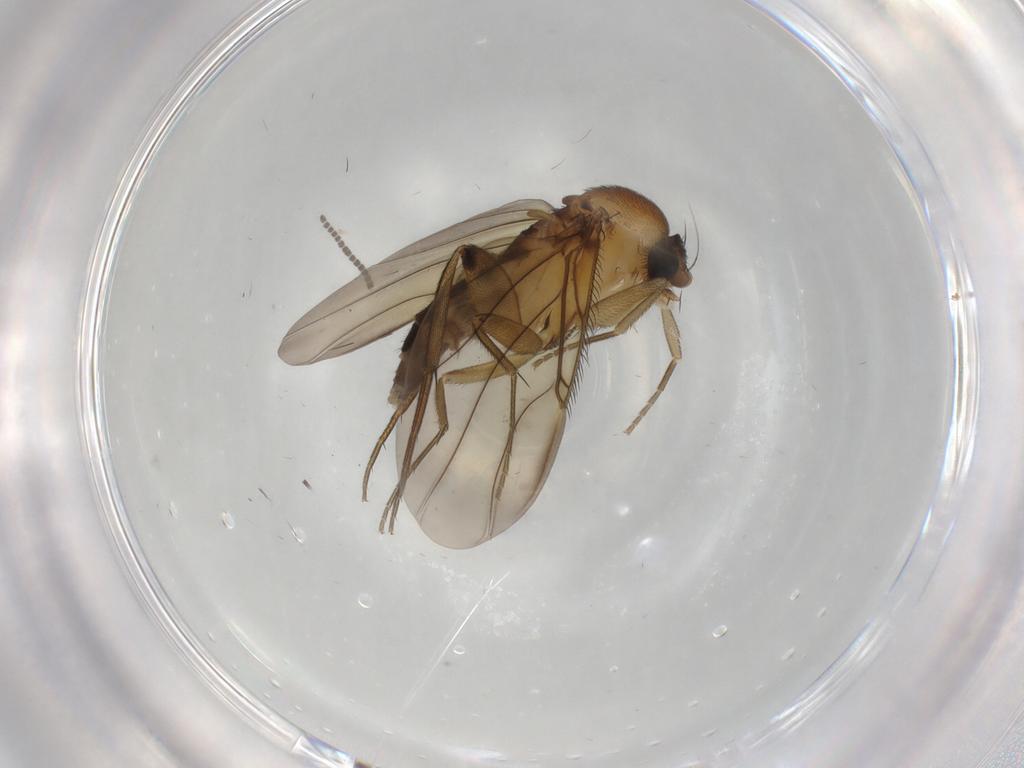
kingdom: Animalia
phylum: Arthropoda
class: Insecta
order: Diptera
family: Phoridae
